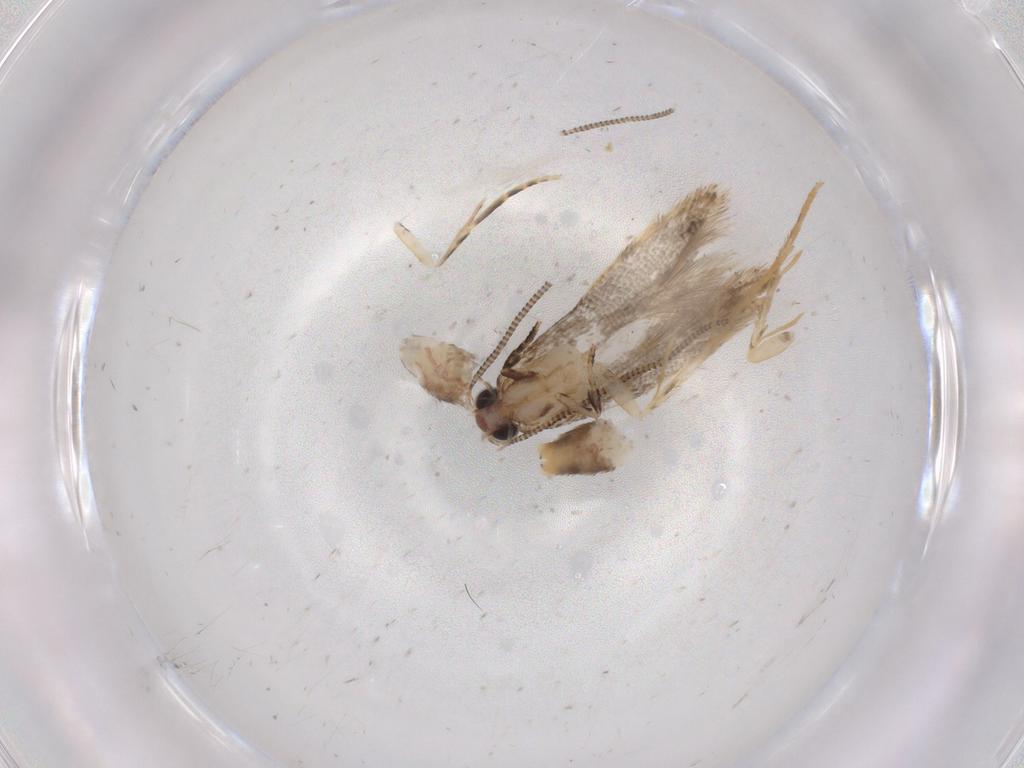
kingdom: Animalia
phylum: Arthropoda
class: Insecta
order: Lepidoptera
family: Tineidae
